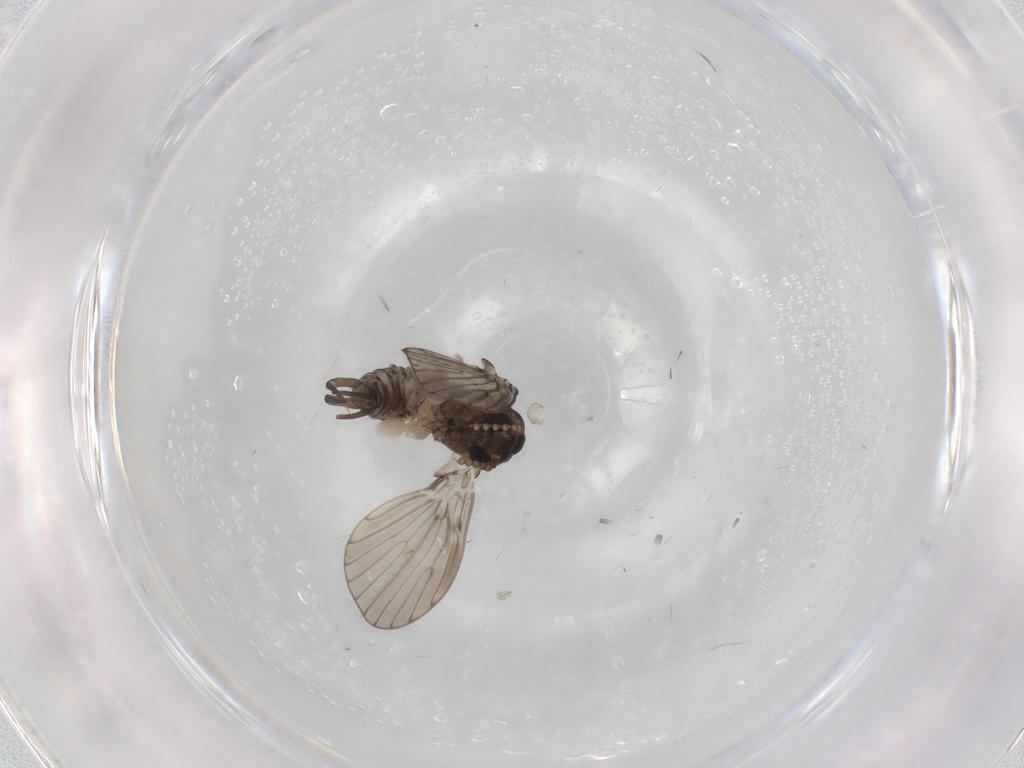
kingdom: Animalia
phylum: Arthropoda
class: Insecta
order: Diptera
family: Psychodidae
